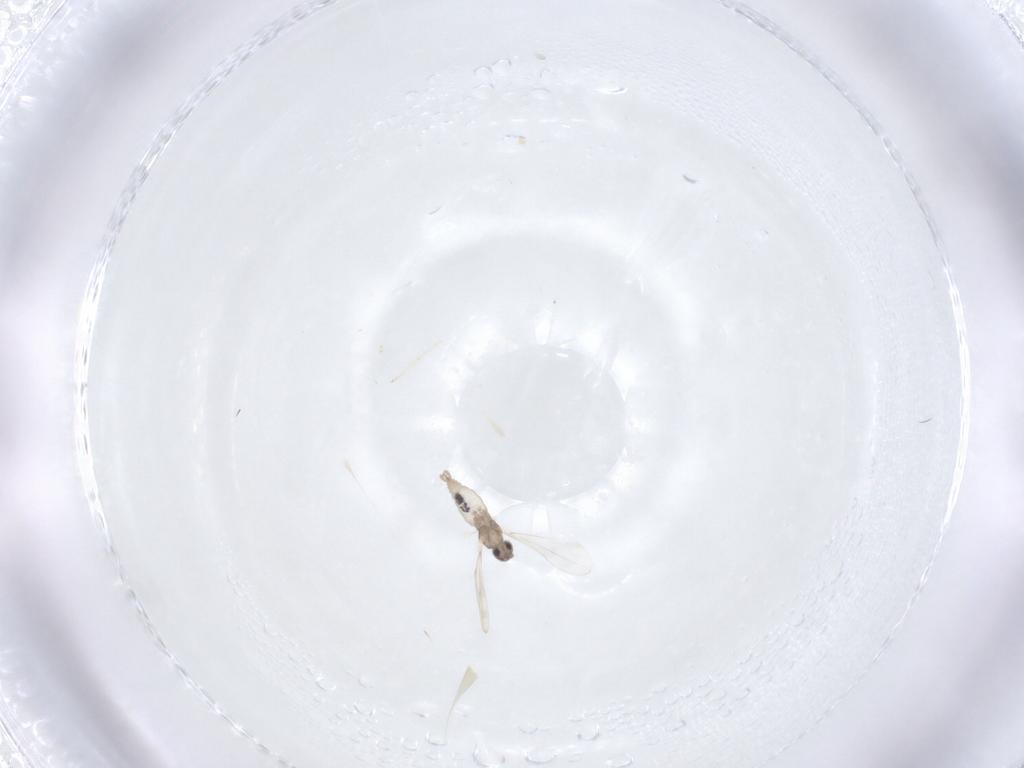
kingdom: Animalia
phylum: Arthropoda
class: Insecta
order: Diptera
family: Cecidomyiidae
